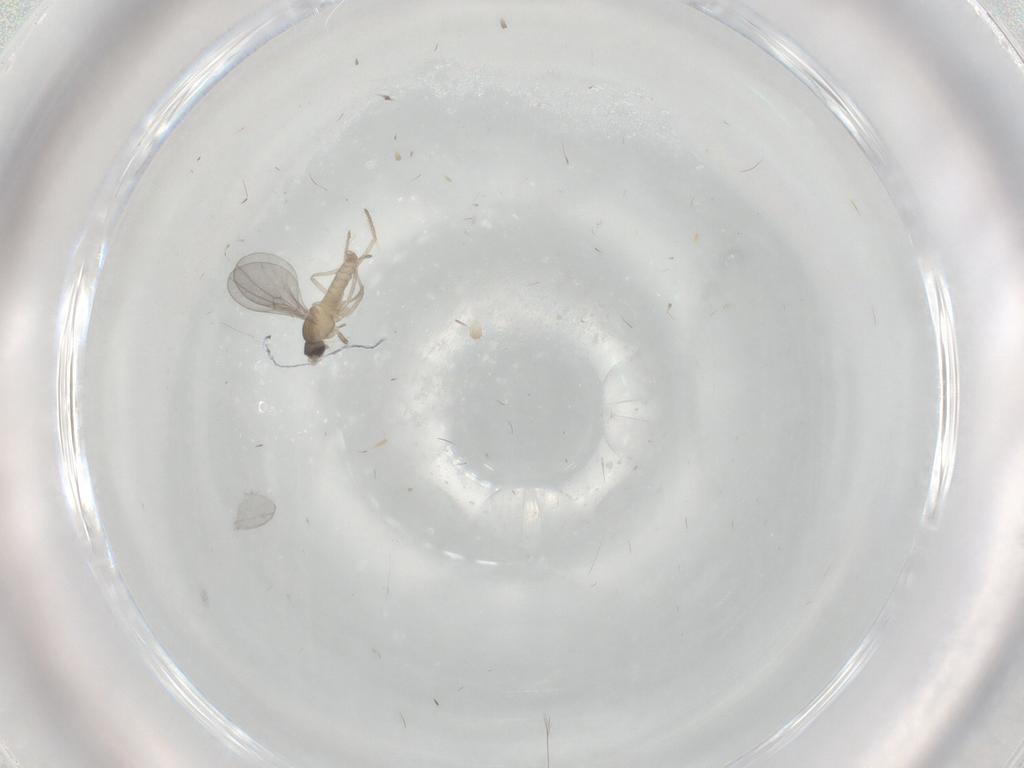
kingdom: Animalia
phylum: Arthropoda
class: Insecta
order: Diptera
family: Cecidomyiidae
